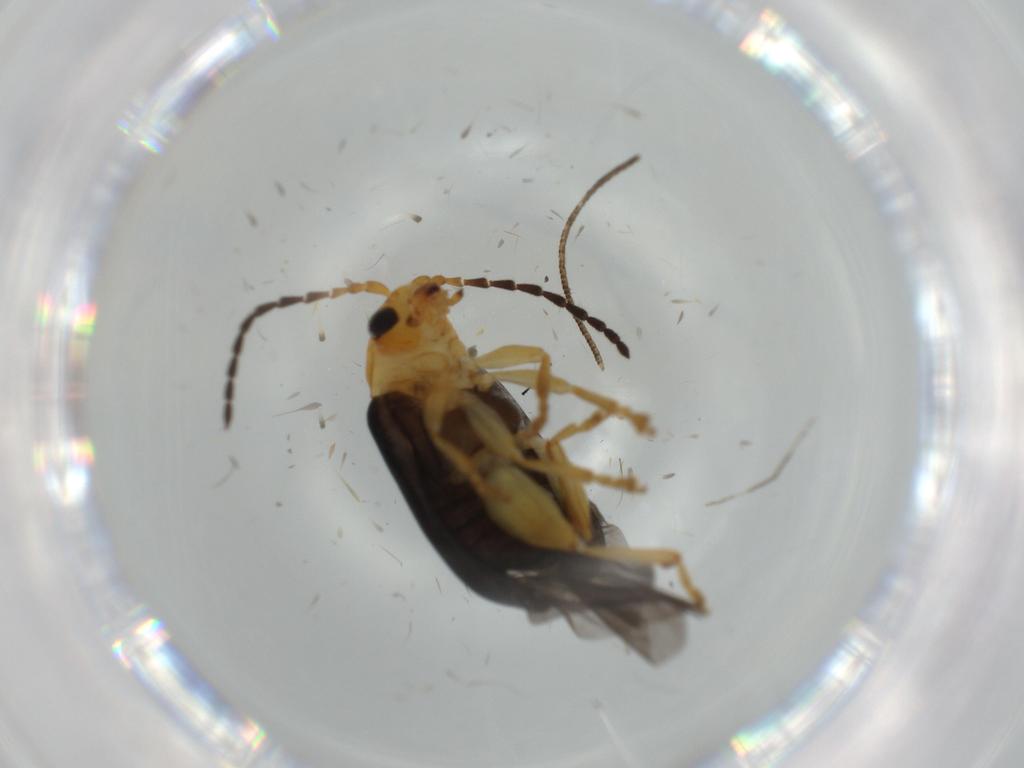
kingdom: Animalia
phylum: Arthropoda
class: Insecta
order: Coleoptera
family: Chrysomelidae
